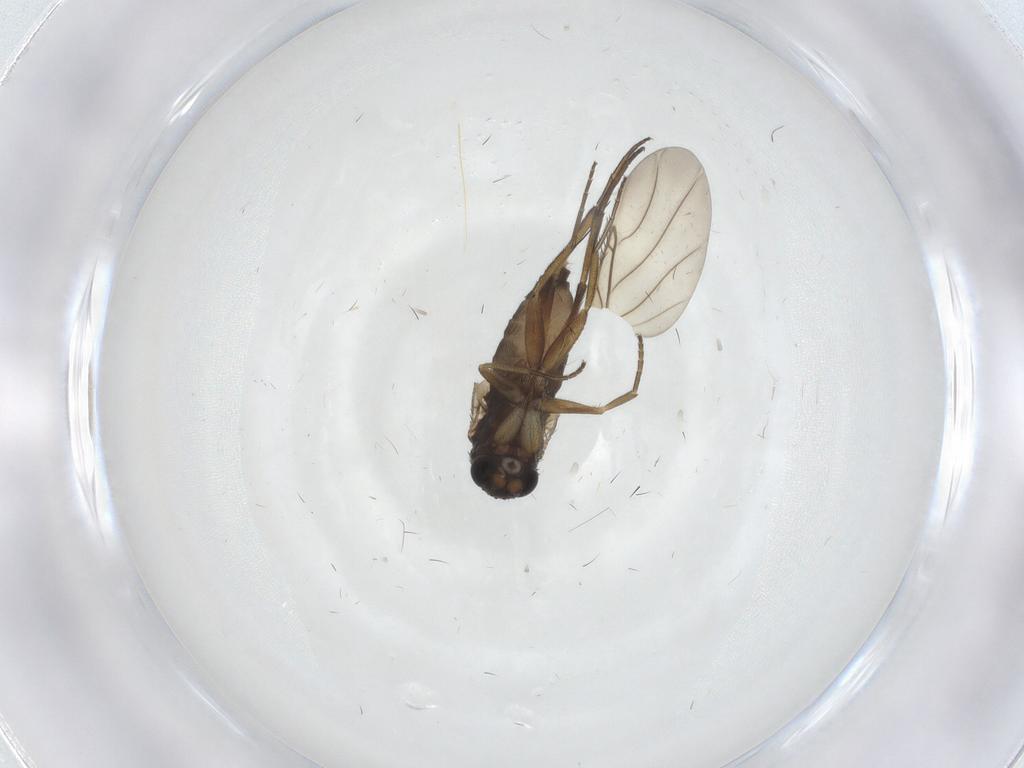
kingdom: Animalia
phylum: Arthropoda
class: Insecta
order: Diptera
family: Phoridae
